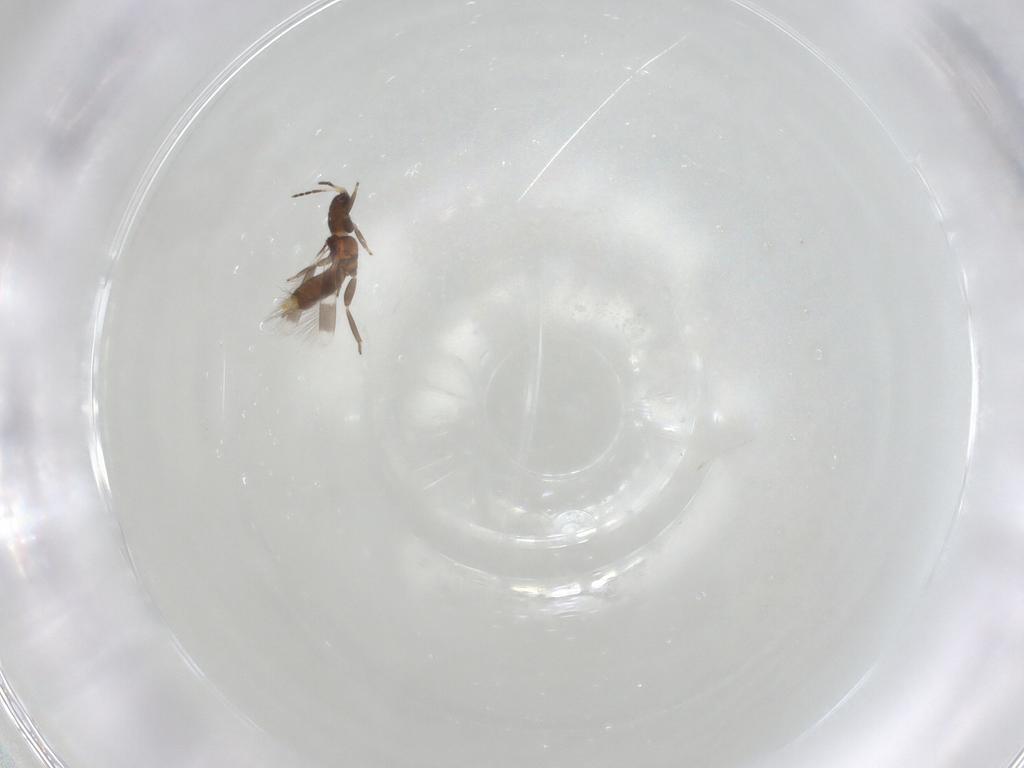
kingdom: Animalia
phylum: Arthropoda
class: Insecta
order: Thysanoptera
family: Aeolothripidae
